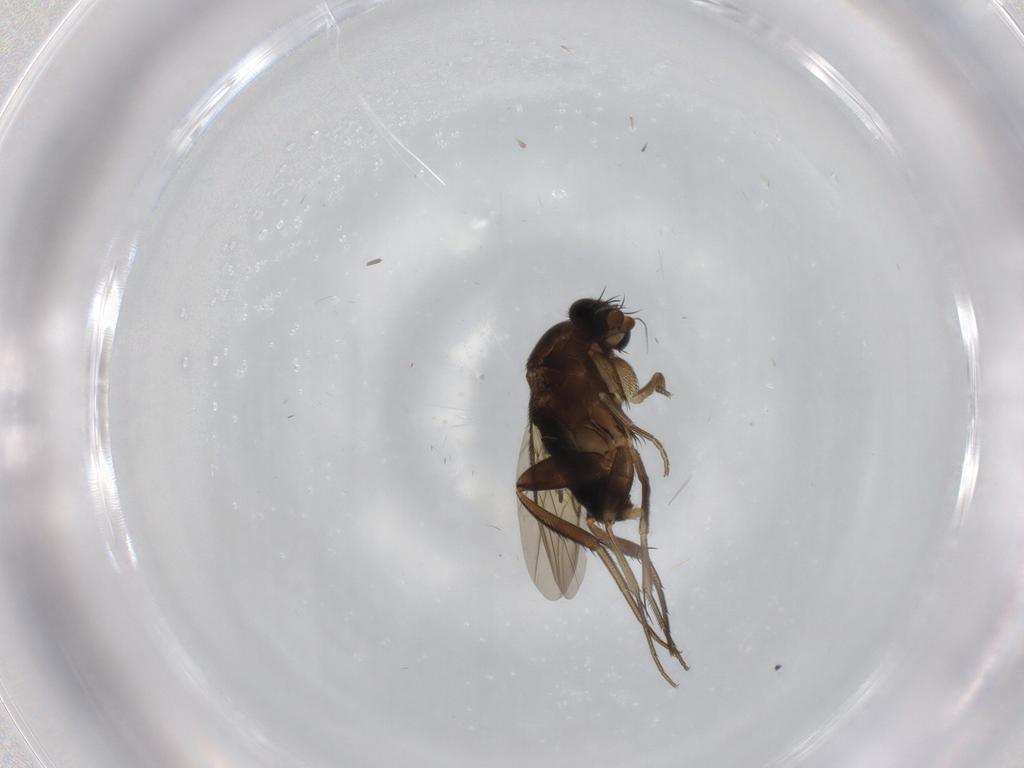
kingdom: Animalia
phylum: Arthropoda
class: Insecta
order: Diptera
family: Phoridae
